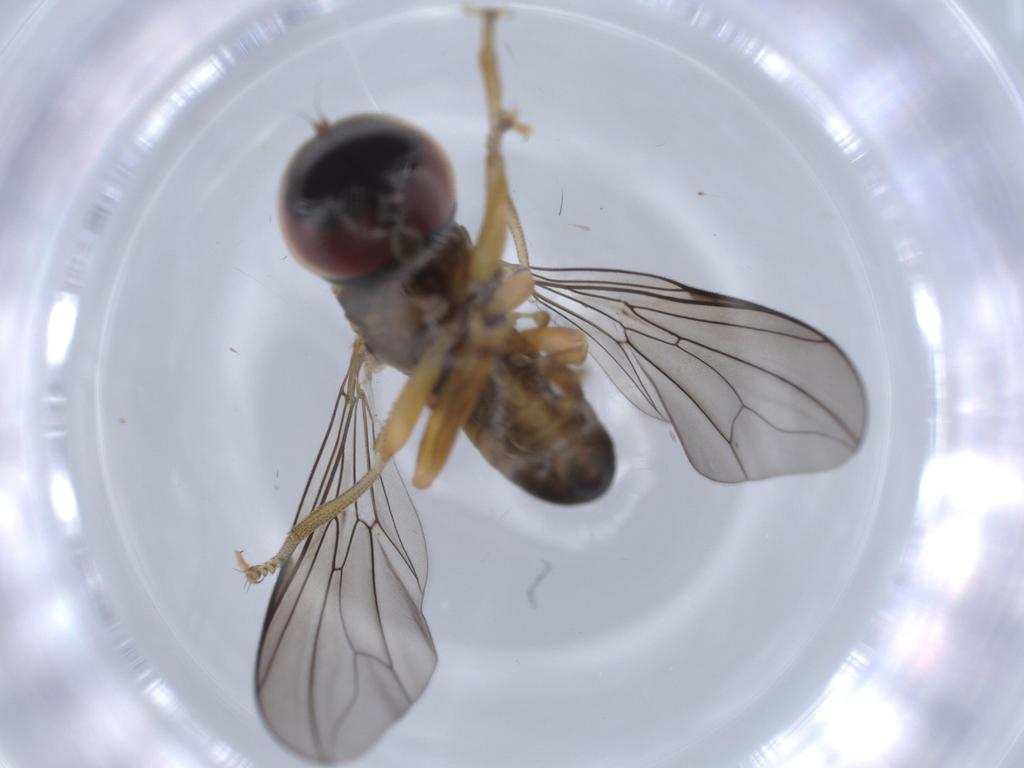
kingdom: Animalia
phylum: Arthropoda
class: Insecta
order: Diptera
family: Pipunculidae
